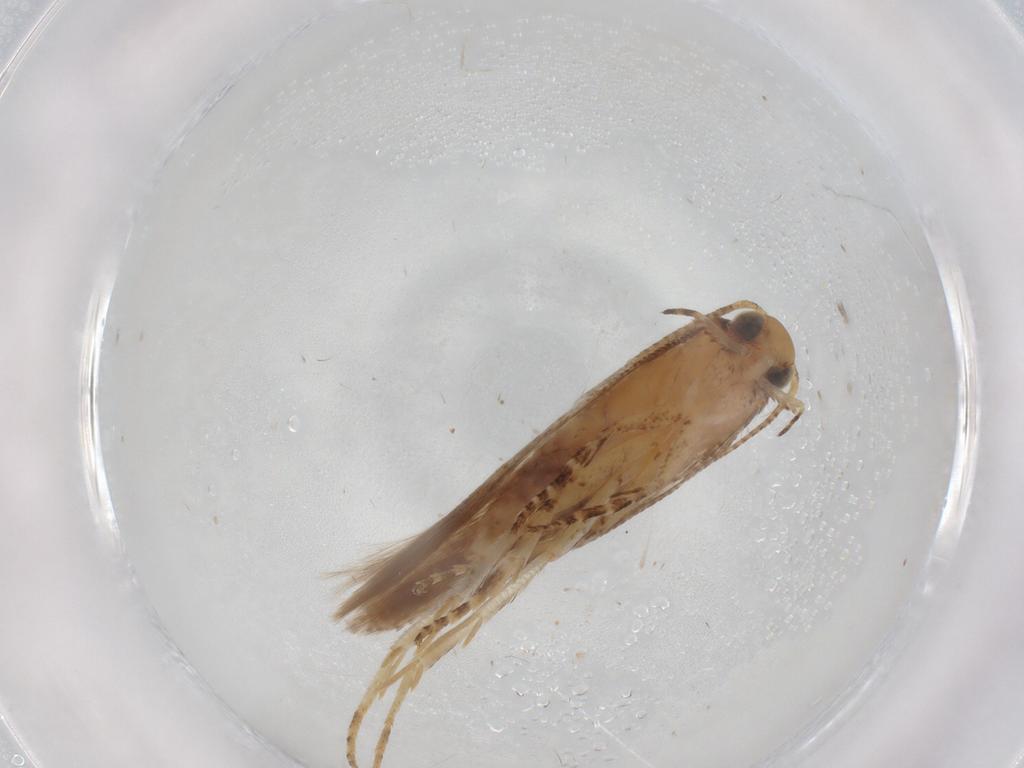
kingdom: Animalia
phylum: Arthropoda
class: Insecta
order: Lepidoptera
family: Gelechiidae
